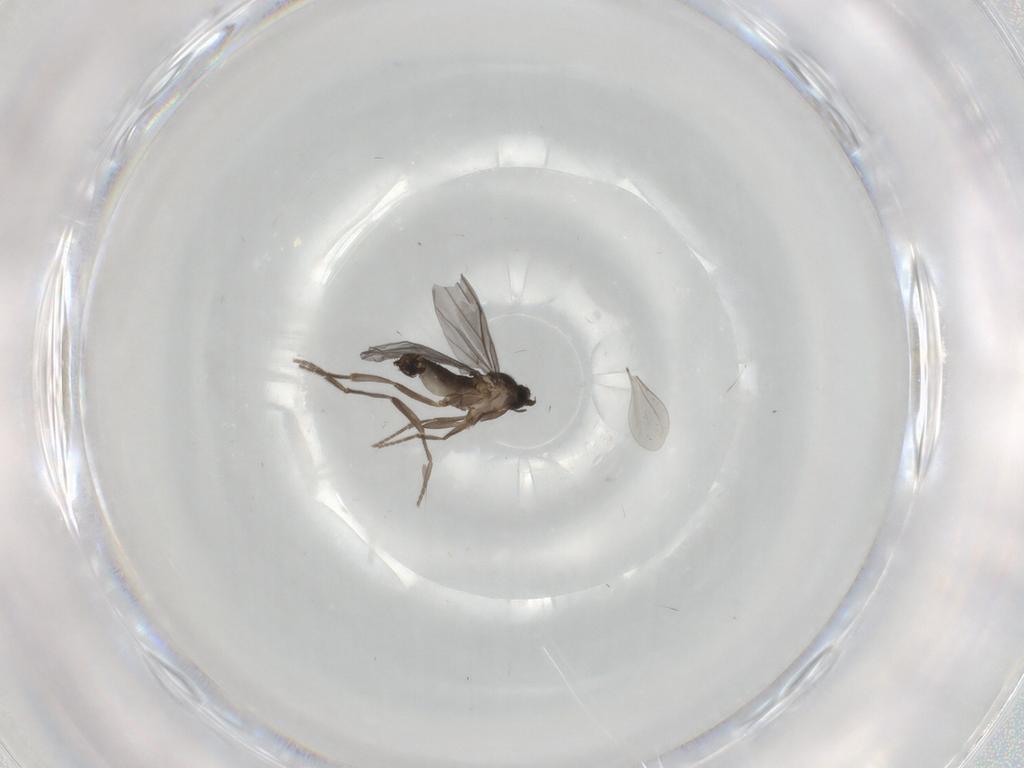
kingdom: Animalia
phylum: Arthropoda
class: Insecta
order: Diptera
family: Phoridae
